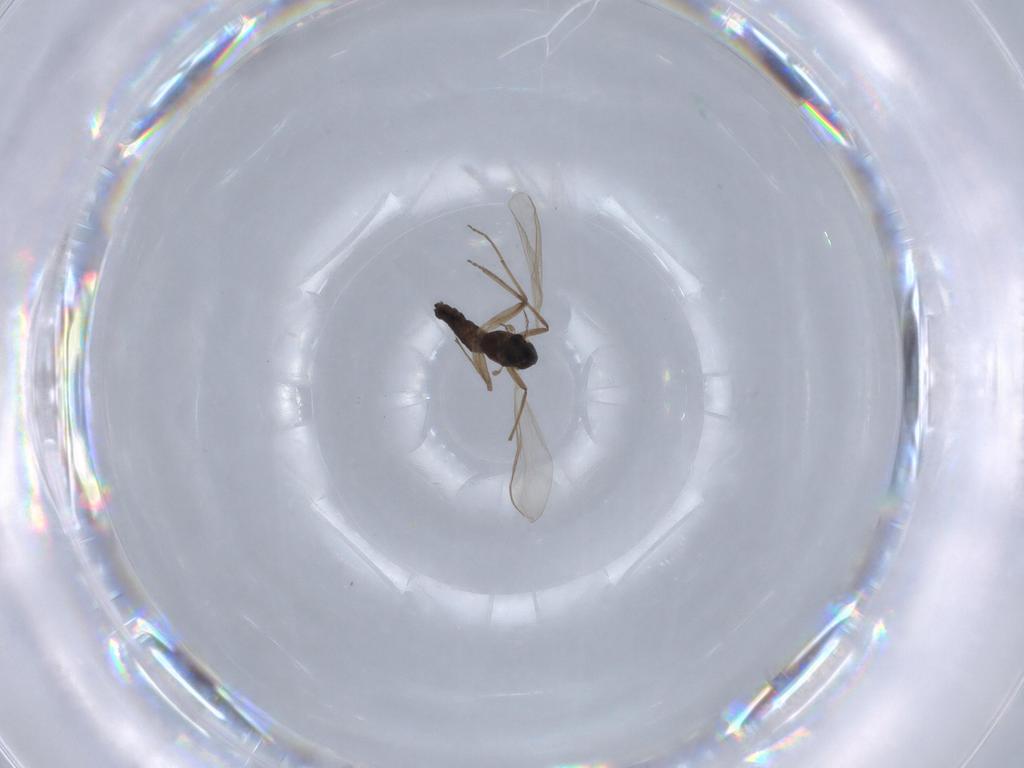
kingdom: Animalia
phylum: Arthropoda
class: Insecta
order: Diptera
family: Chironomidae
